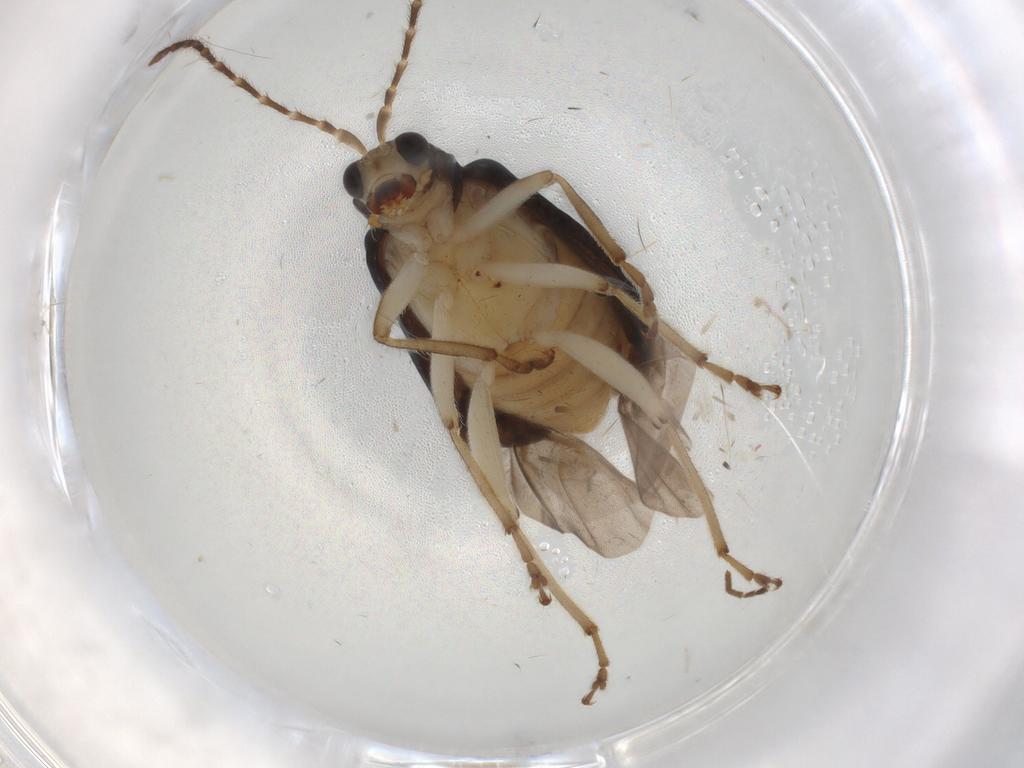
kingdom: Animalia
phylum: Arthropoda
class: Insecta
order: Coleoptera
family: Chrysomelidae
